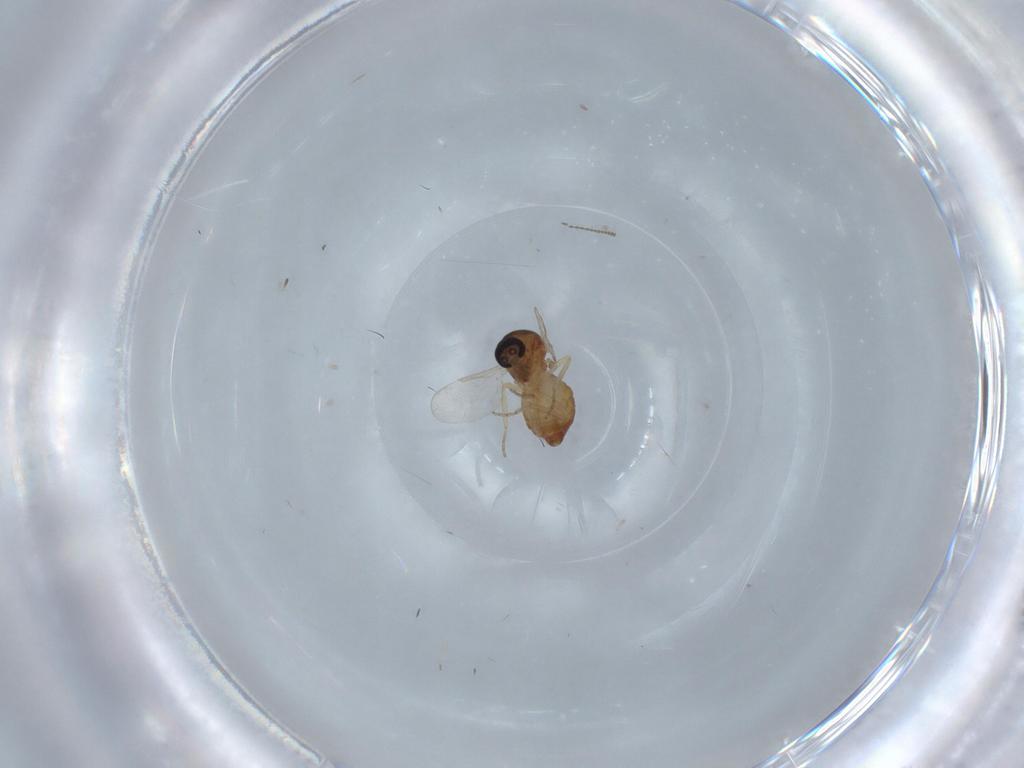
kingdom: Animalia
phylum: Arthropoda
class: Insecta
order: Diptera
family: Ceratopogonidae
